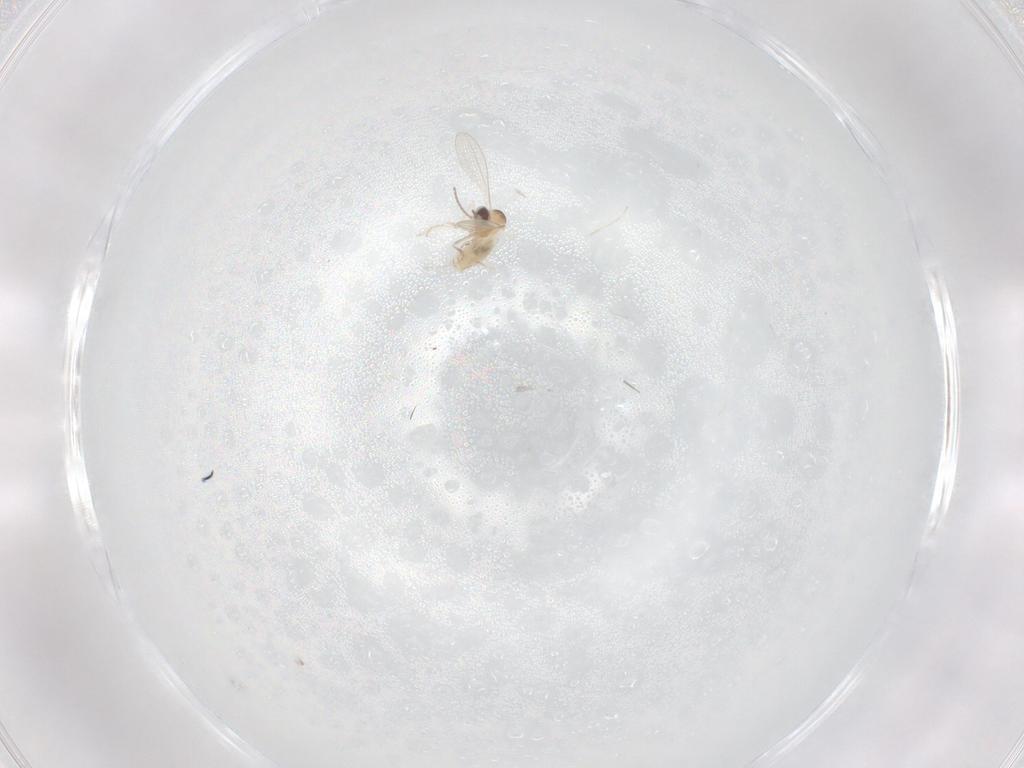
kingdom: Animalia
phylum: Arthropoda
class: Insecta
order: Diptera
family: Cecidomyiidae
